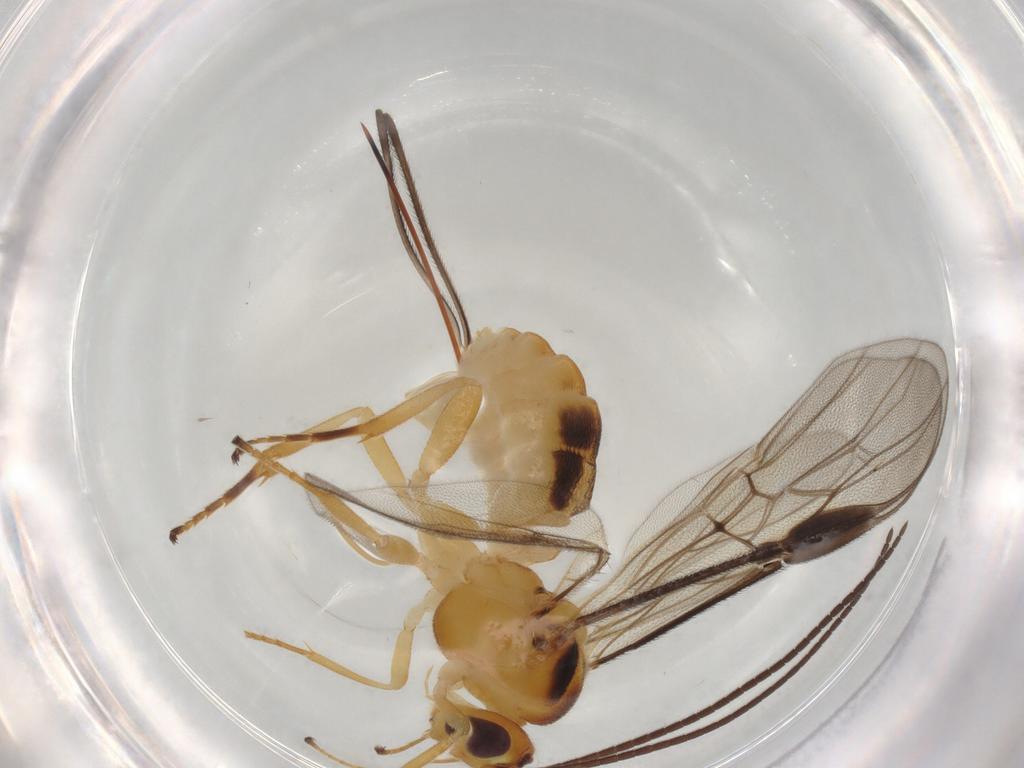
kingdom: Animalia
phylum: Arthropoda
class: Insecta
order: Hymenoptera
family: Braconidae
